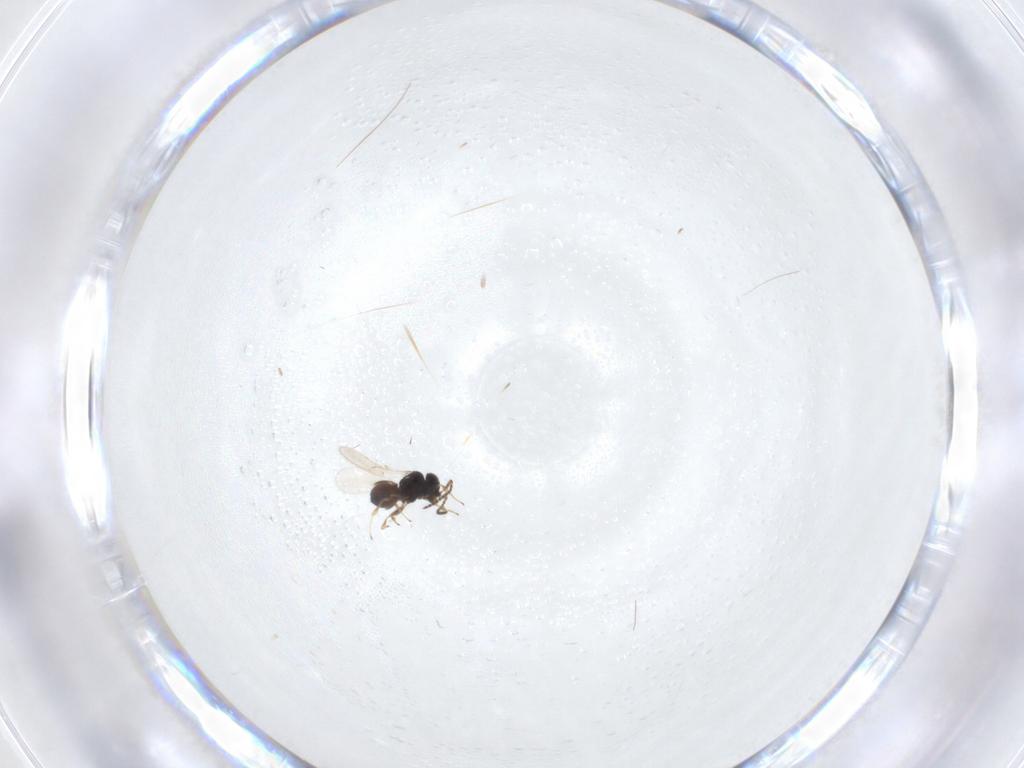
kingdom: Animalia
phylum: Arthropoda
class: Insecta
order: Hymenoptera
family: Scelionidae
